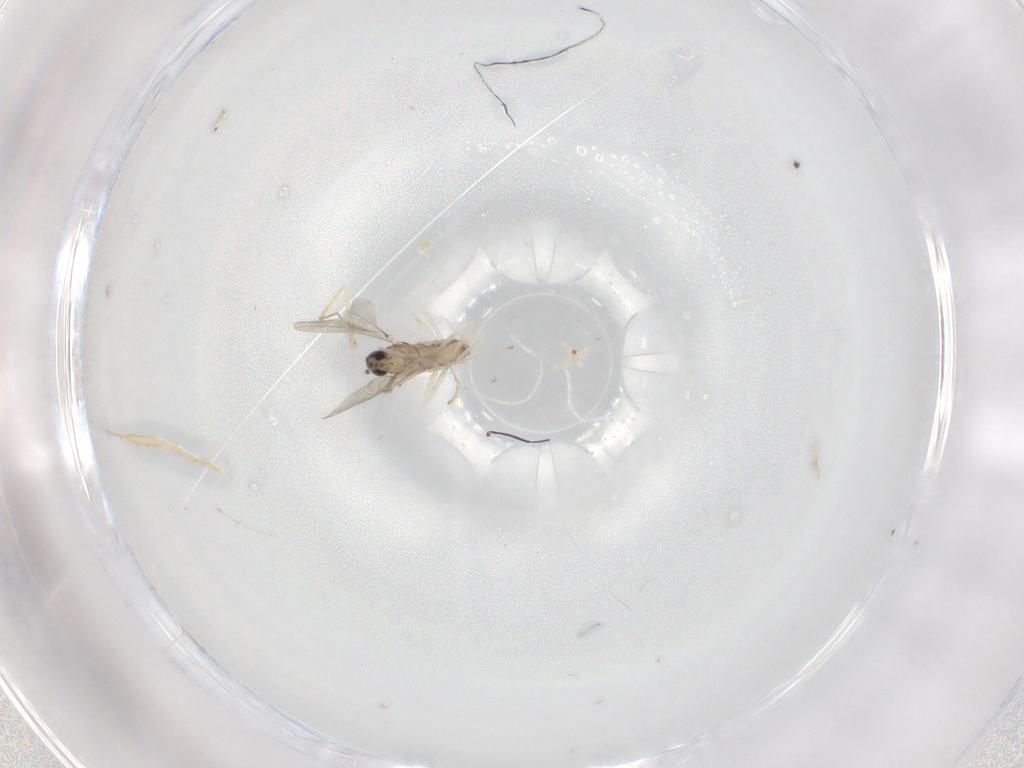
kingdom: Animalia
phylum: Arthropoda
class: Insecta
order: Diptera
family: Cecidomyiidae
